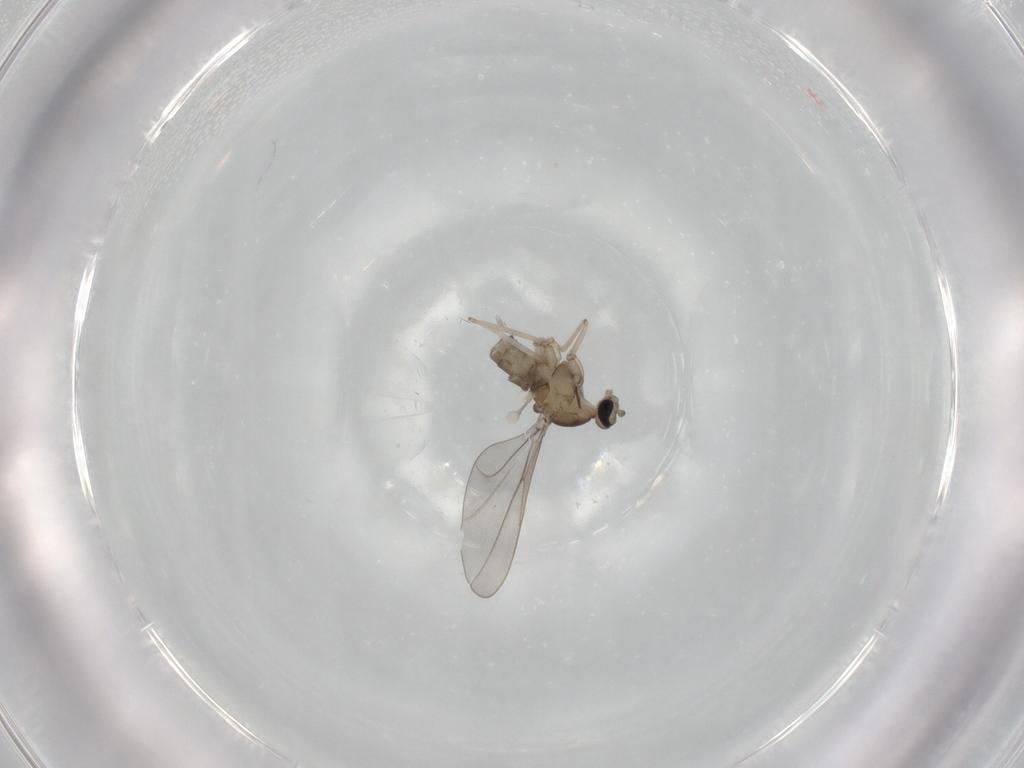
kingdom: Animalia
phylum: Arthropoda
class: Insecta
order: Diptera
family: Cecidomyiidae
